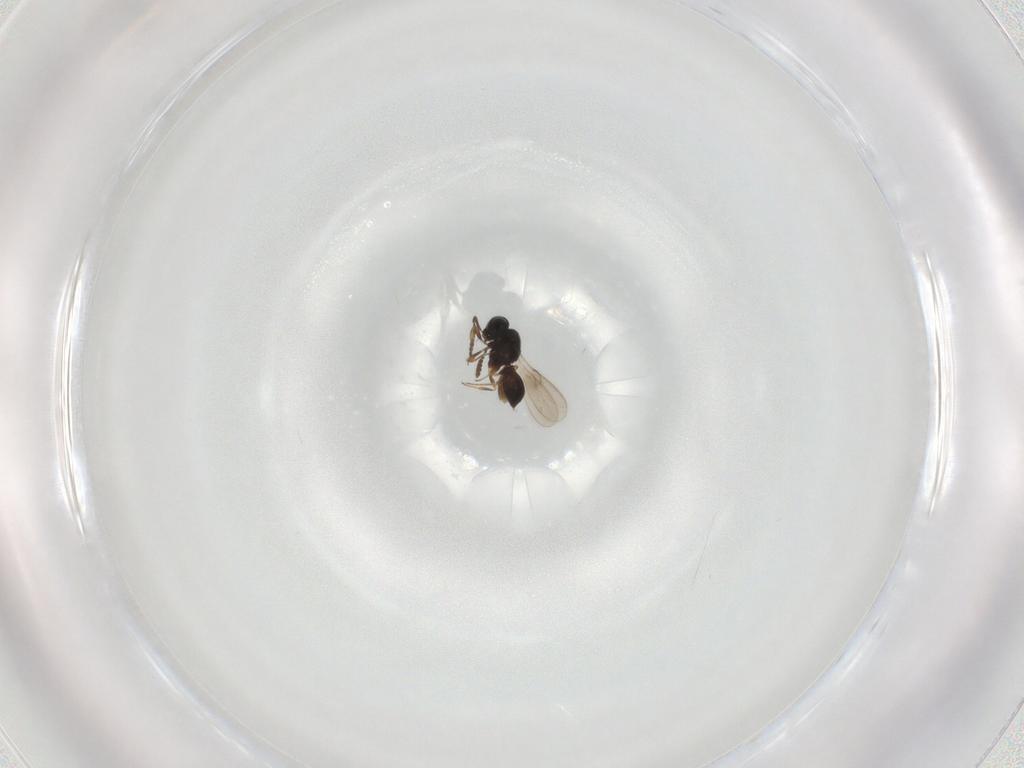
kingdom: Animalia
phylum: Arthropoda
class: Insecta
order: Hymenoptera
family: Scelionidae
